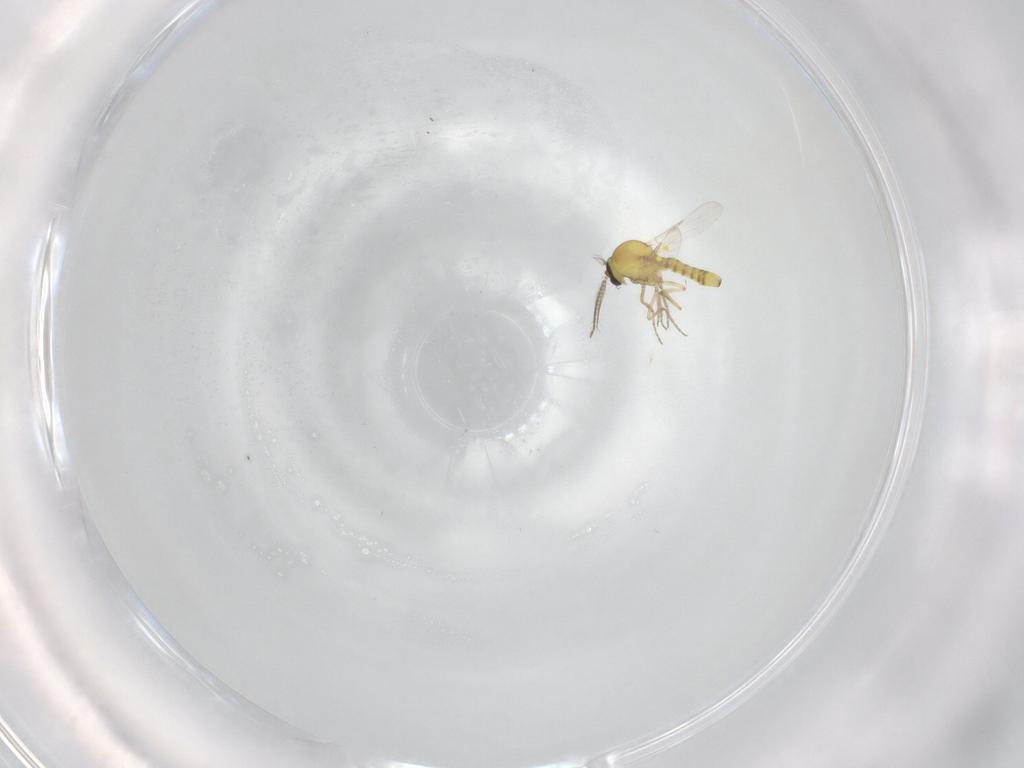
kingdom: Animalia
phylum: Arthropoda
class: Insecta
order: Diptera
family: Ceratopogonidae
